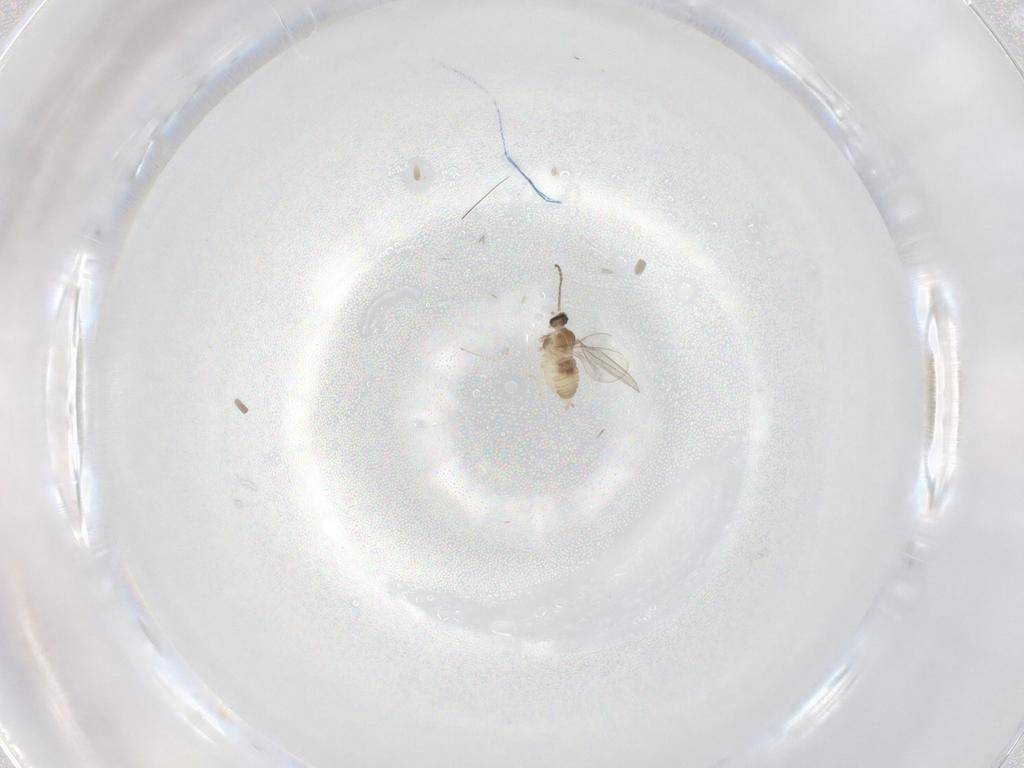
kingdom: Animalia
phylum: Arthropoda
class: Insecta
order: Diptera
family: Cecidomyiidae
